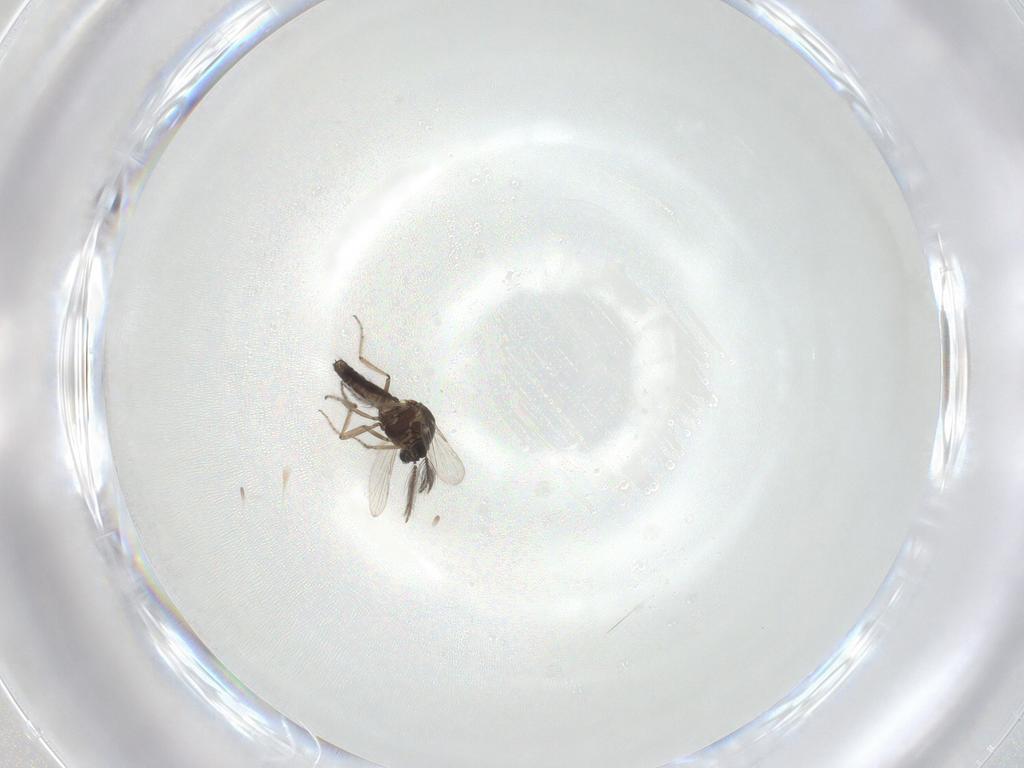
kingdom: Animalia
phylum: Arthropoda
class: Insecta
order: Diptera
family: Ceratopogonidae
